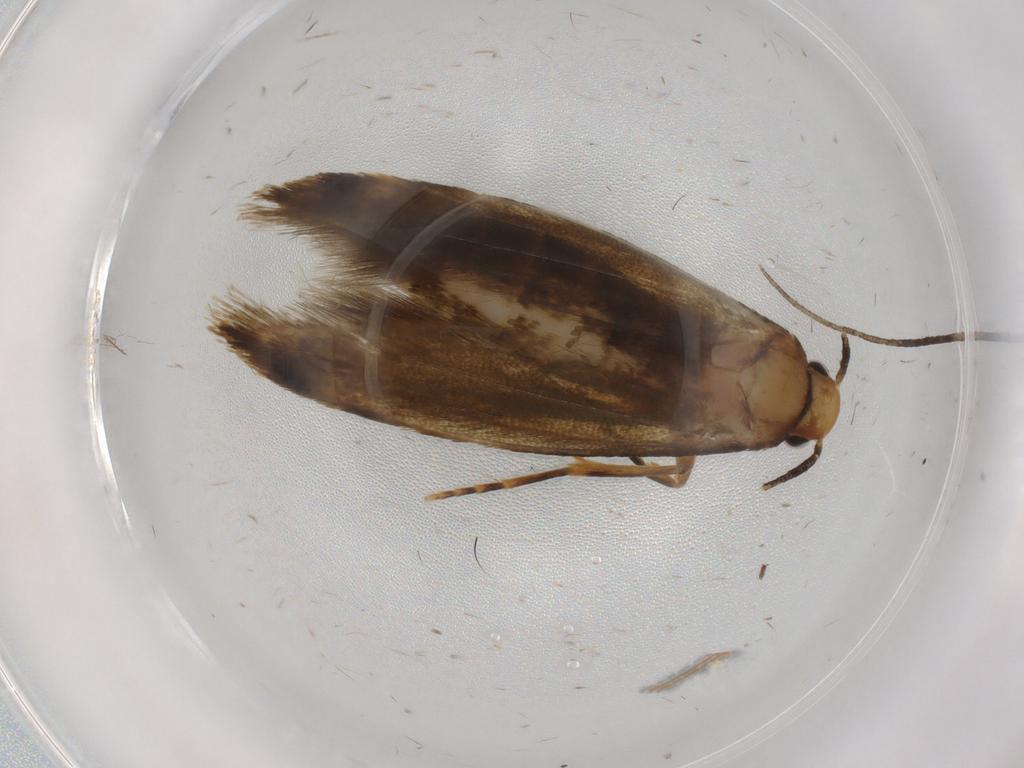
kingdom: Animalia
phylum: Arthropoda
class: Insecta
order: Lepidoptera
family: Tineidae
